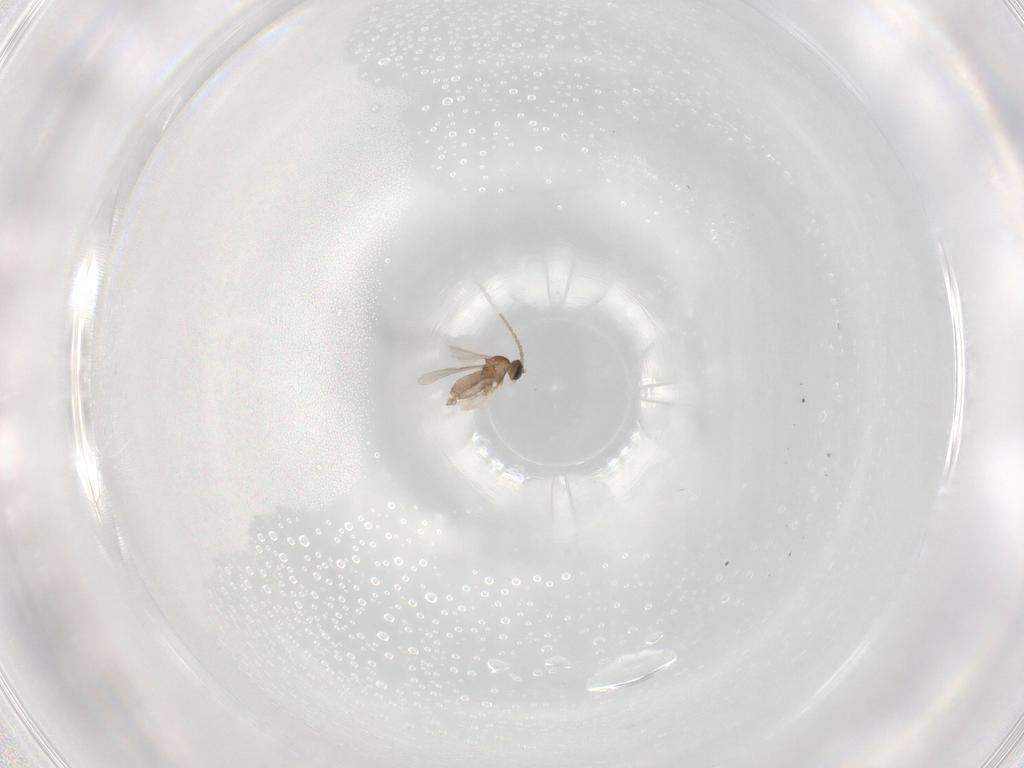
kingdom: Animalia
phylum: Arthropoda
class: Insecta
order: Diptera
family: Cecidomyiidae
